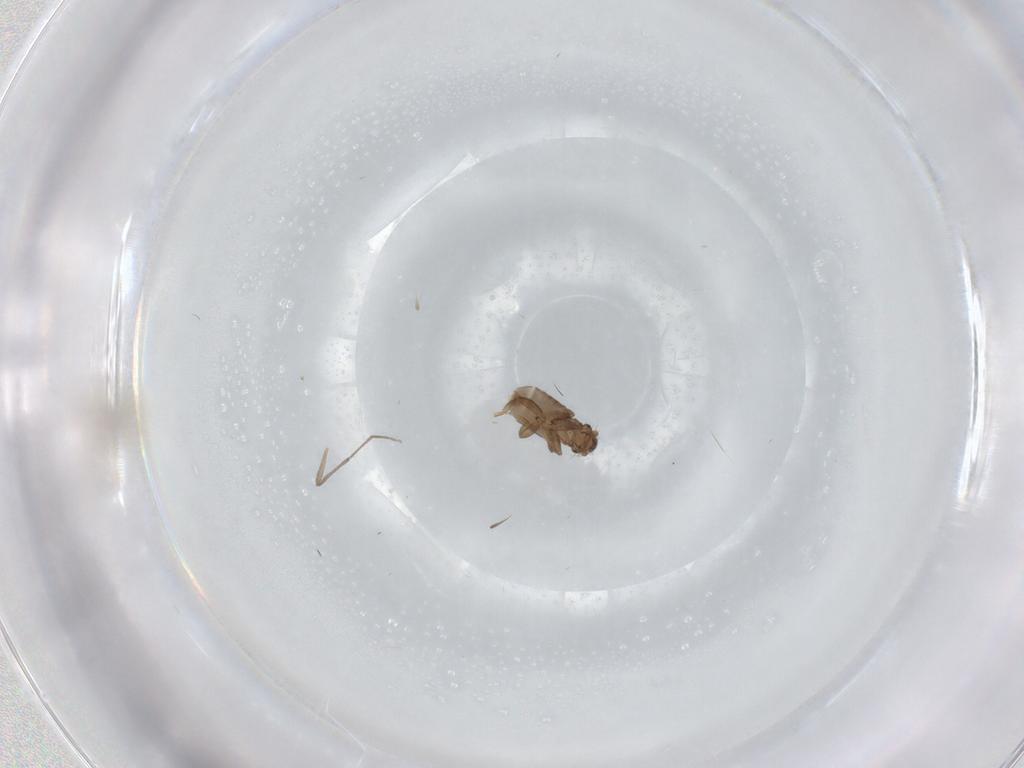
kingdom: Animalia
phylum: Arthropoda
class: Insecta
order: Diptera
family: Cecidomyiidae
